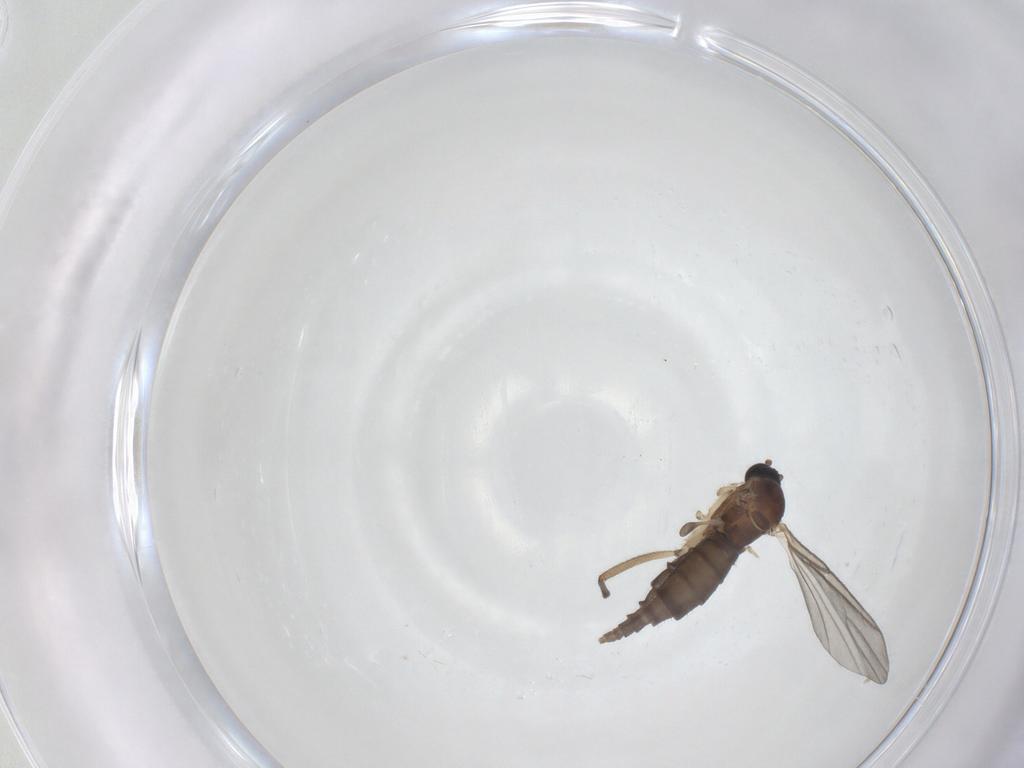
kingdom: Animalia
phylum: Arthropoda
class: Insecta
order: Diptera
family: Sciaridae
